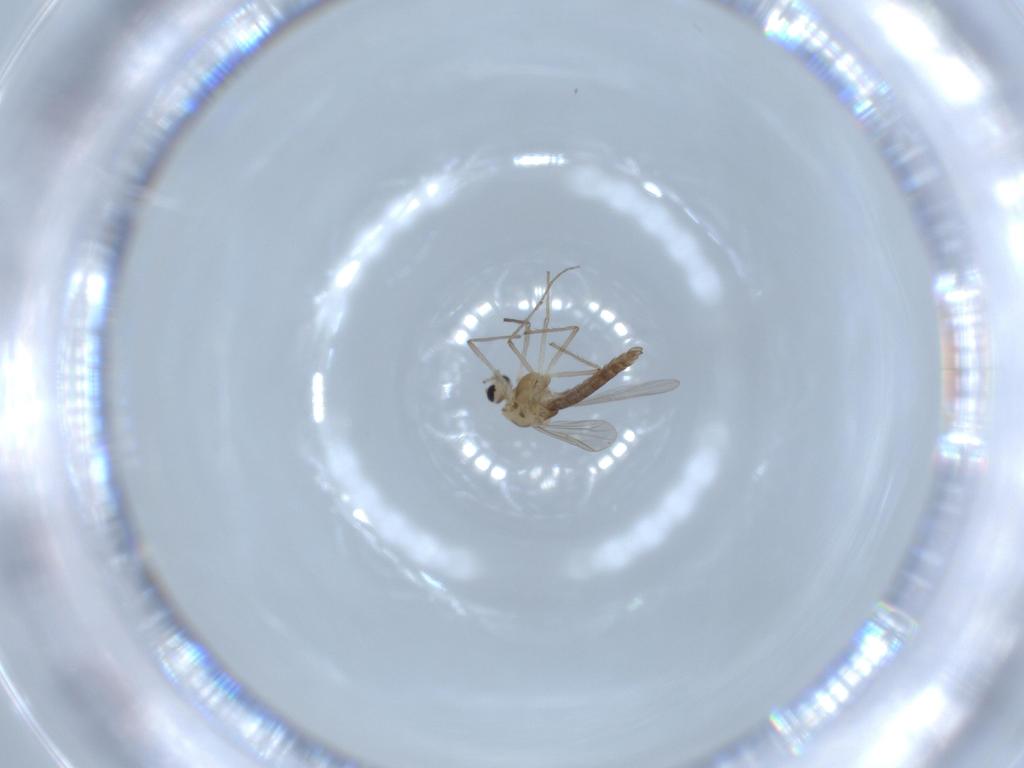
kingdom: Animalia
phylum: Arthropoda
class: Insecta
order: Diptera
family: Chironomidae
